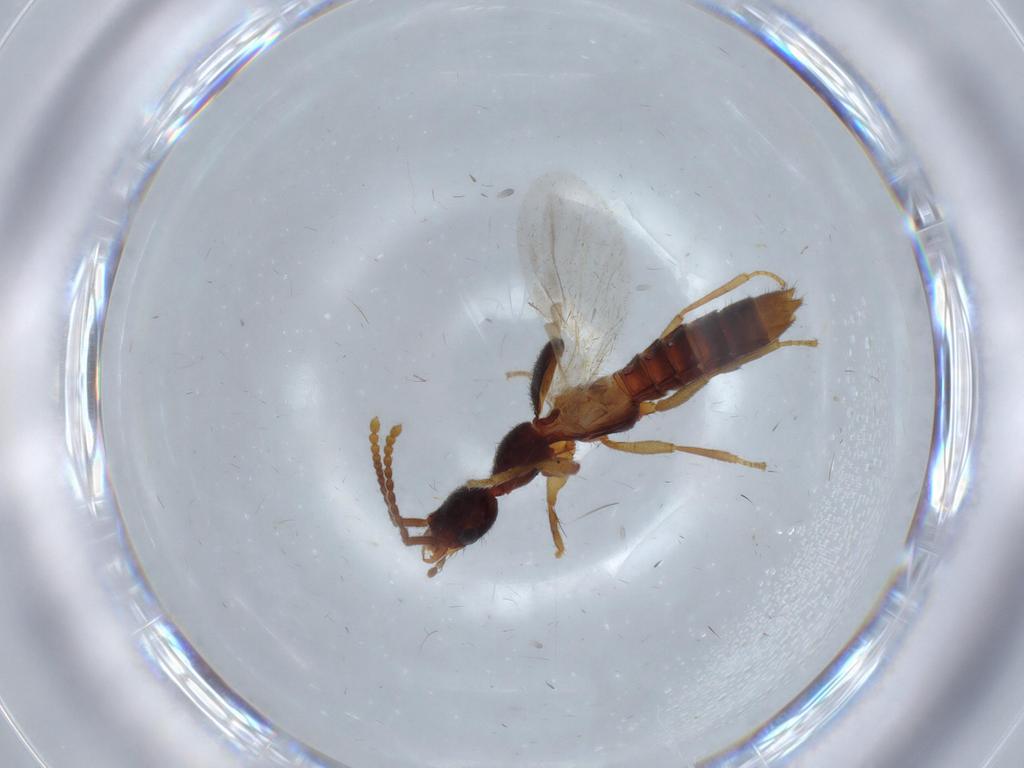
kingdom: Animalia
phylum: Arthropoda
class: Insecta
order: Coleoptera
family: Staphylinidae
